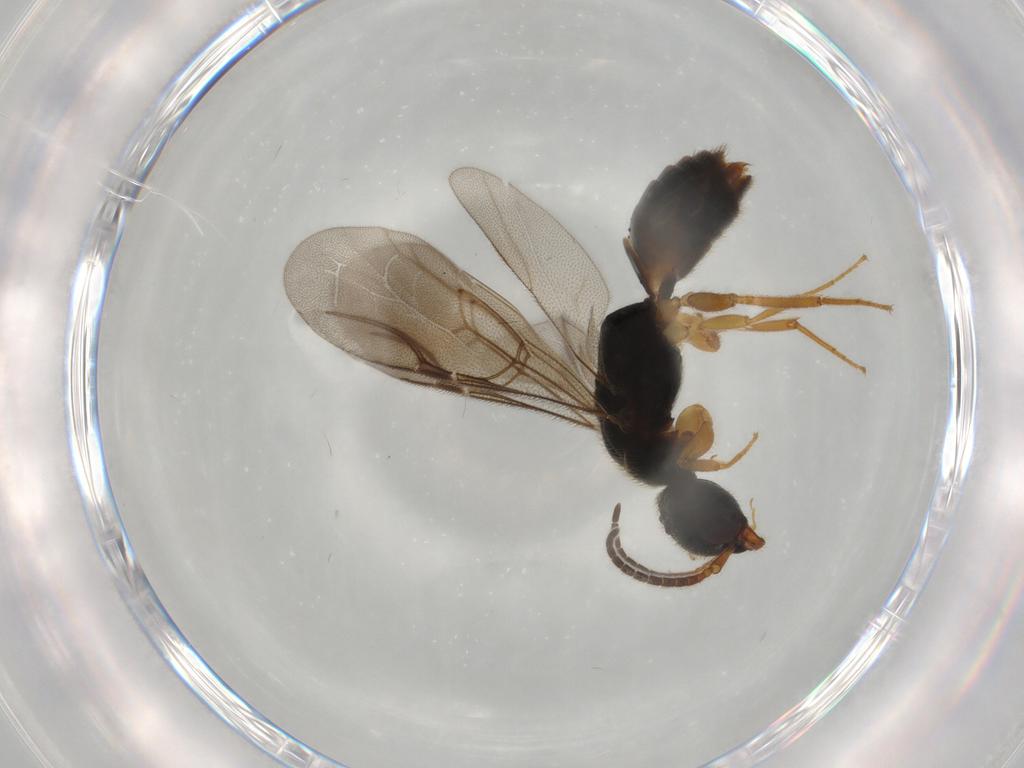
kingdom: Animalia
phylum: Arthropoda
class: Insecta
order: Hymenoptera
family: Bethylidae
